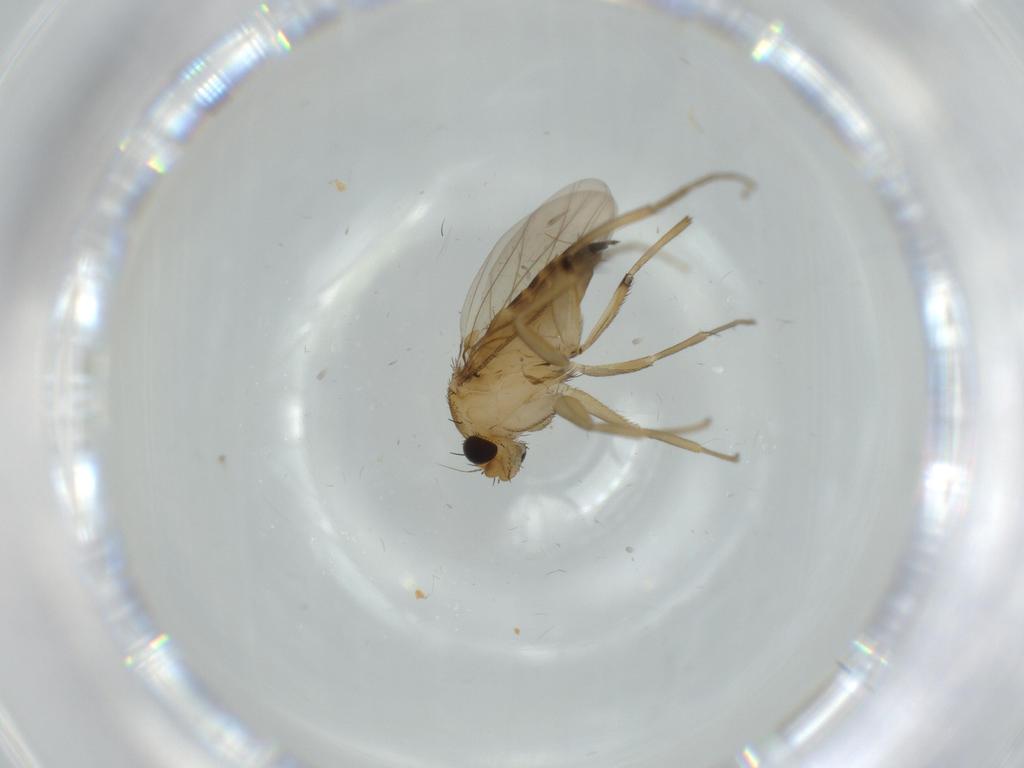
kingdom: Animalia
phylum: Arthropoda
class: Insecta
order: Diptera
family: Phoridae
